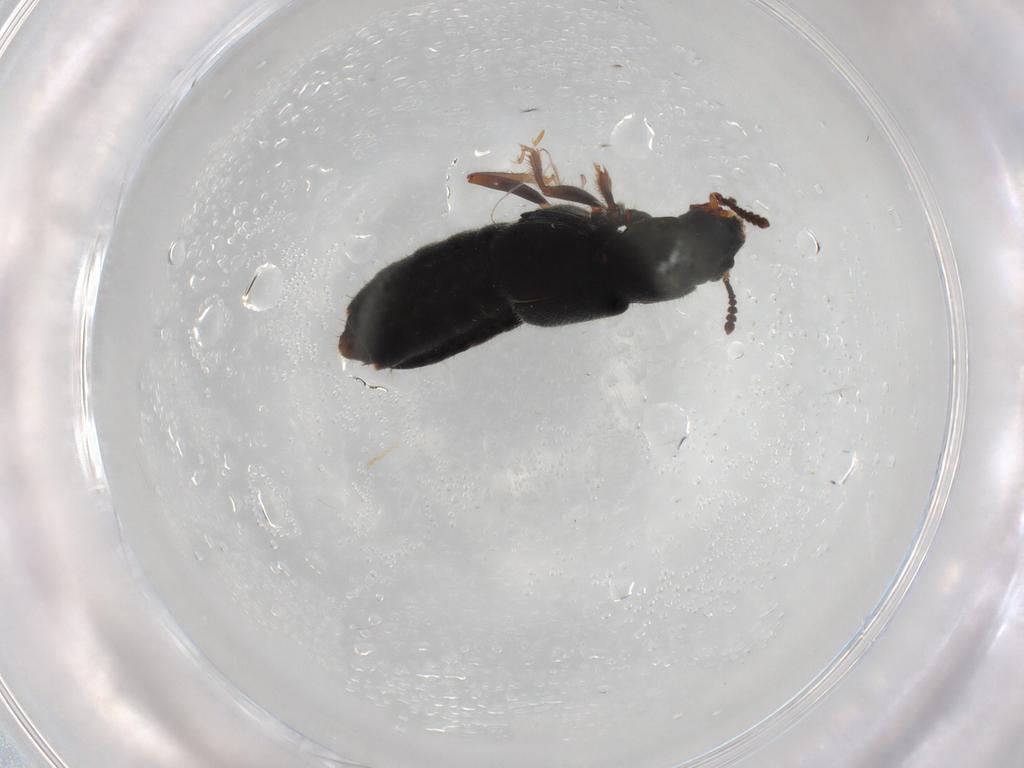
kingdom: Animalia
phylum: Arthropoda
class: Insecta
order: Coleoptera
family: Staphylinidae
